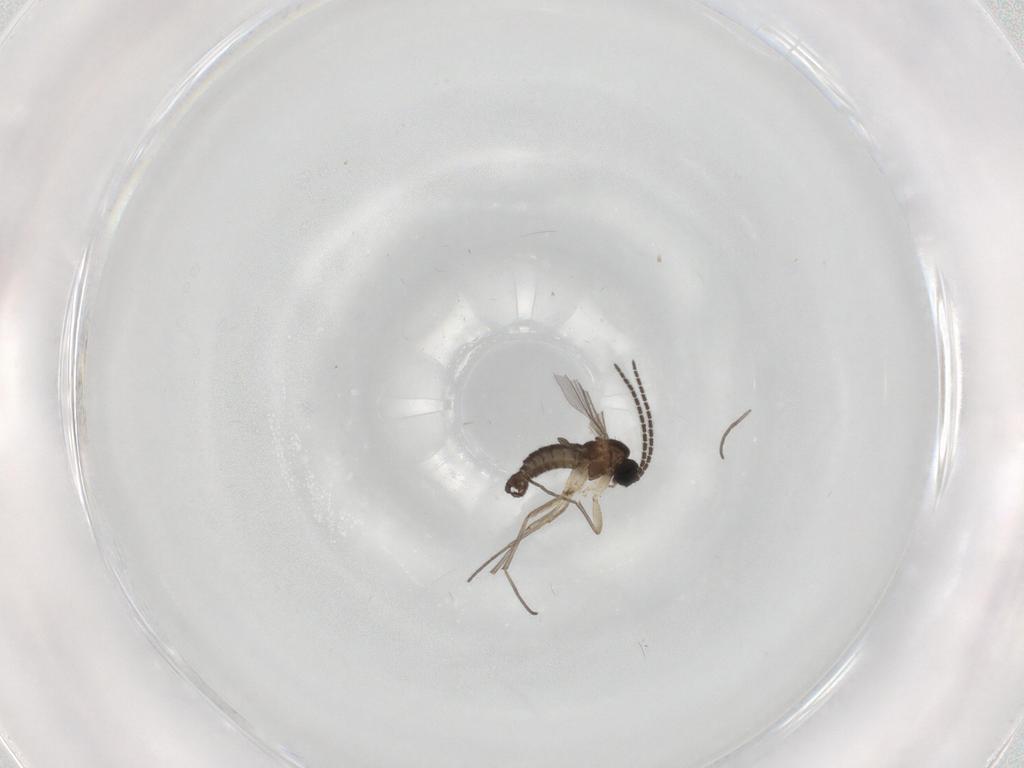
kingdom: Animalia
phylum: Arthropoda
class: Insecta
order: Diptera
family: Sciaridae
